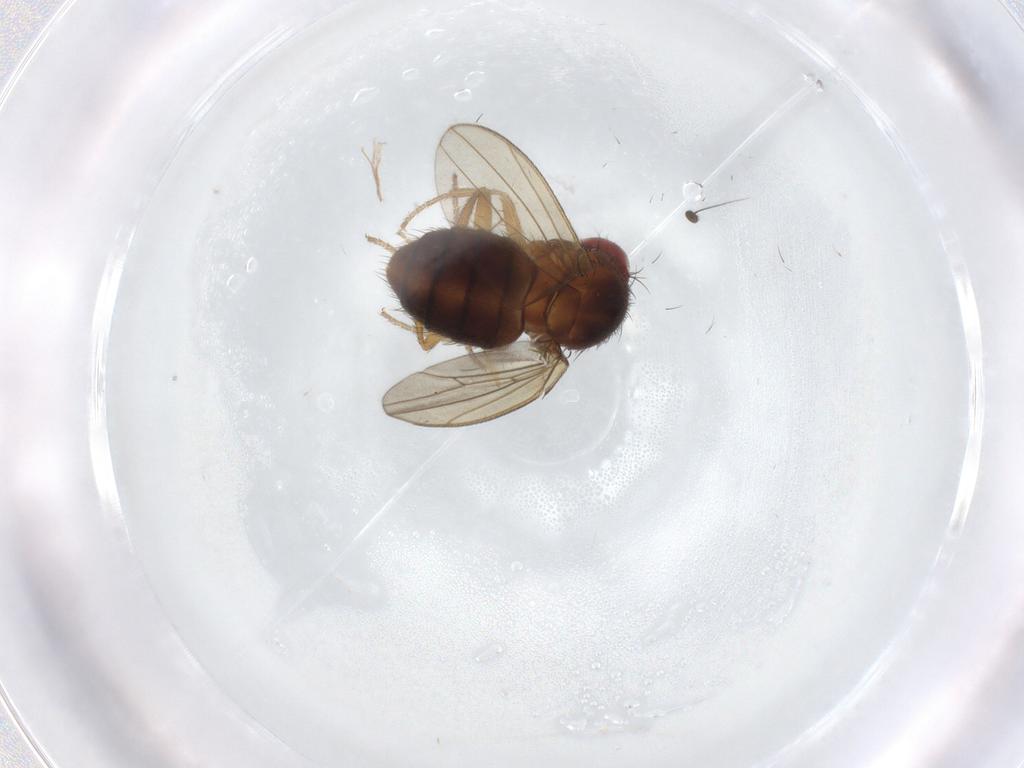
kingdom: Animalia
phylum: Arthropoda
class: Insecta
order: Diptera
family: Drosophilidae
